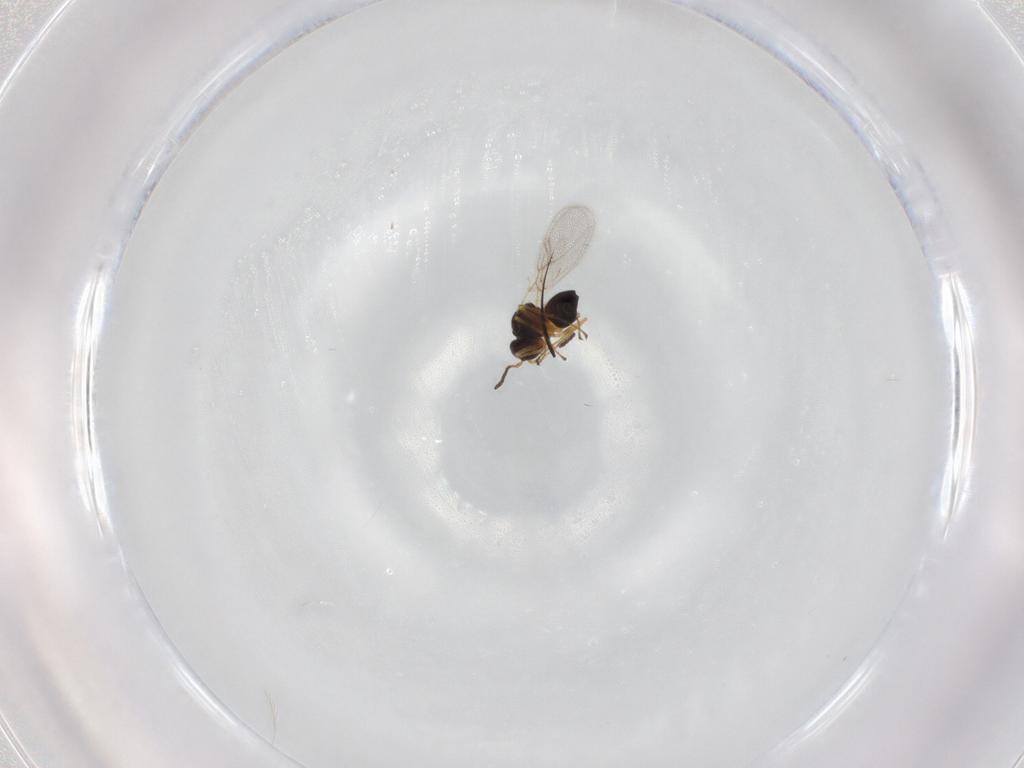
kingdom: Animalia
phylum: Arthropoda
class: Insecta
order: Hymenoptera
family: Figitidae
